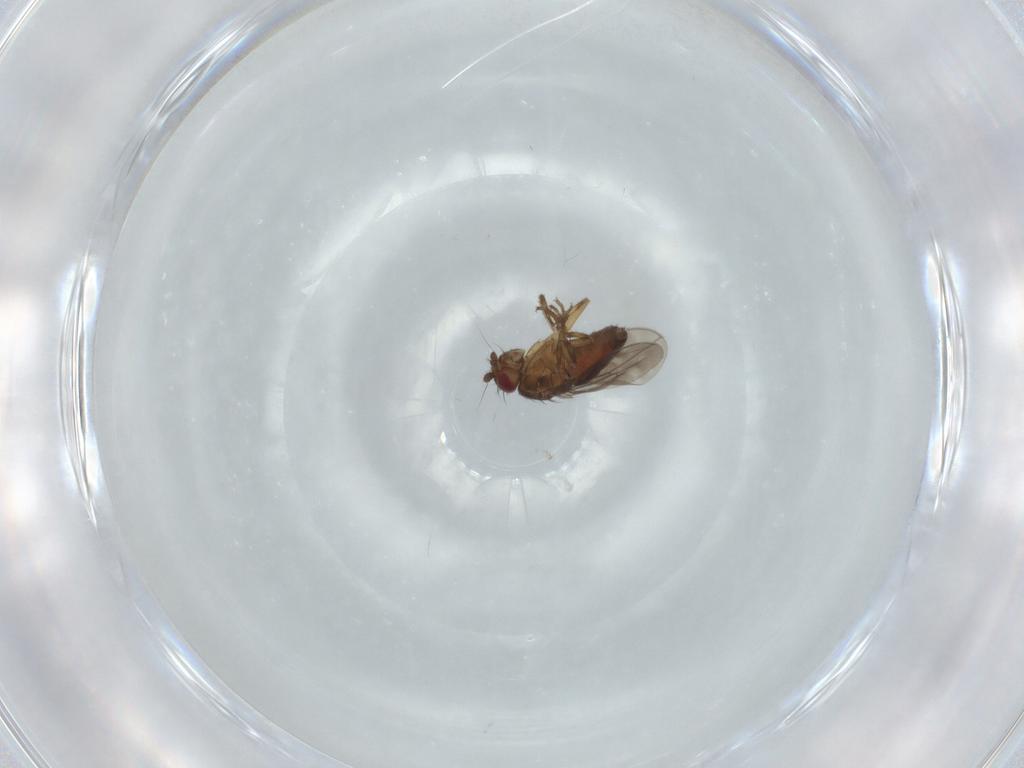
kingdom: Animalia
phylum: Arthropoda
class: Insecta
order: Diptera
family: Sphaeroceridae
